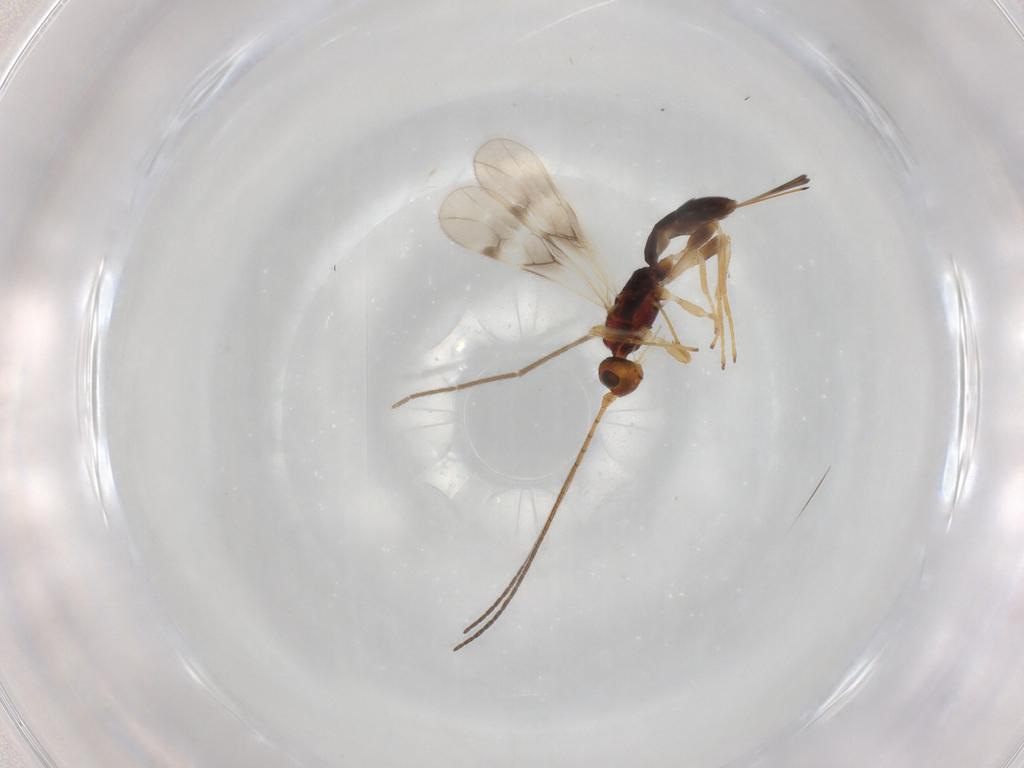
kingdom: Animalia
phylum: Arthropoda
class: Insecta
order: Hymenoptera
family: Braconidae
